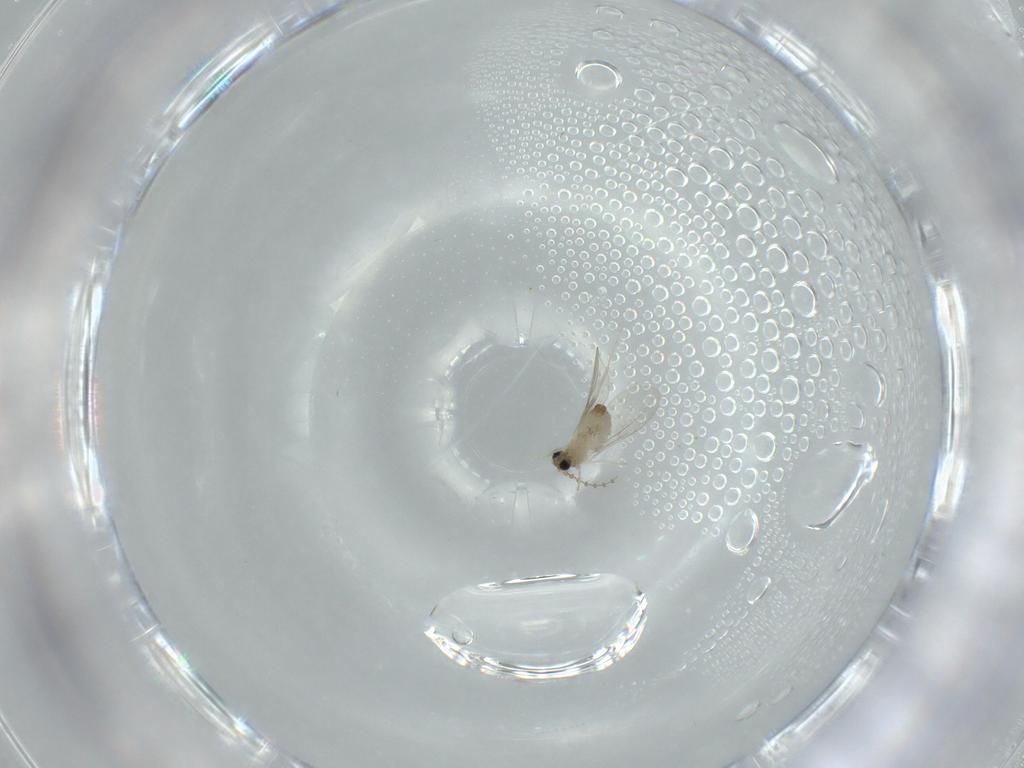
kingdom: Animalia
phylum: Arthropoda
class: Insecta
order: Diptera
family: Cecidomyiidae
